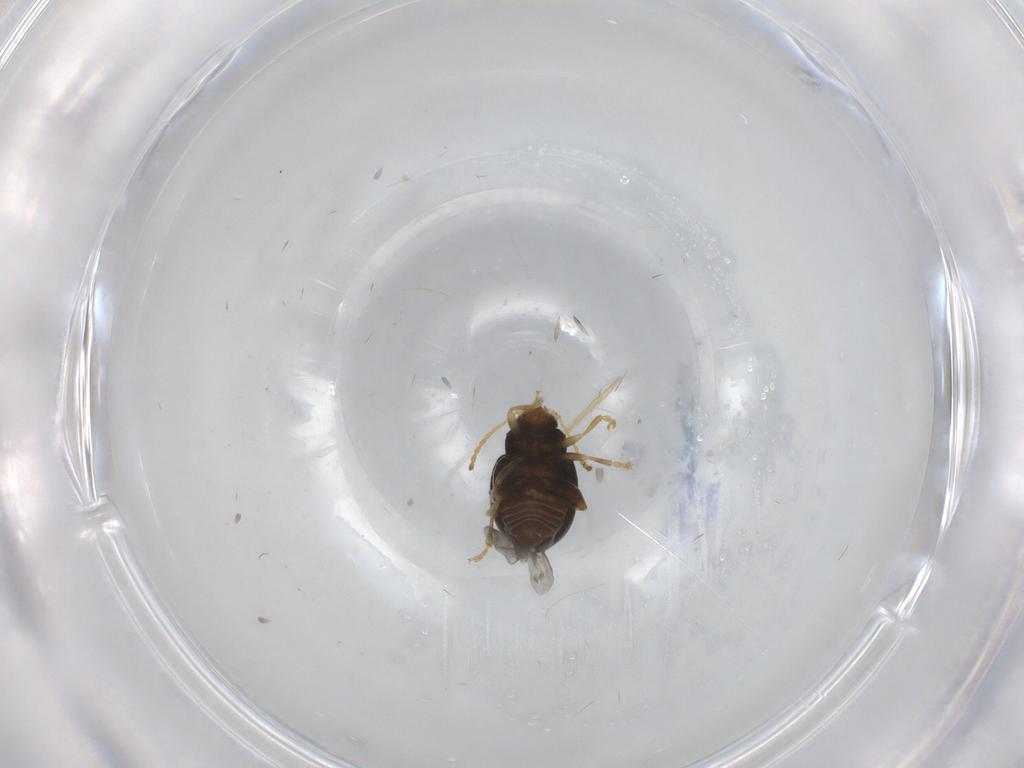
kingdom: Animalia
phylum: Arthropoda
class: Insecta
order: Coleoptera
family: Chrysomelidae
